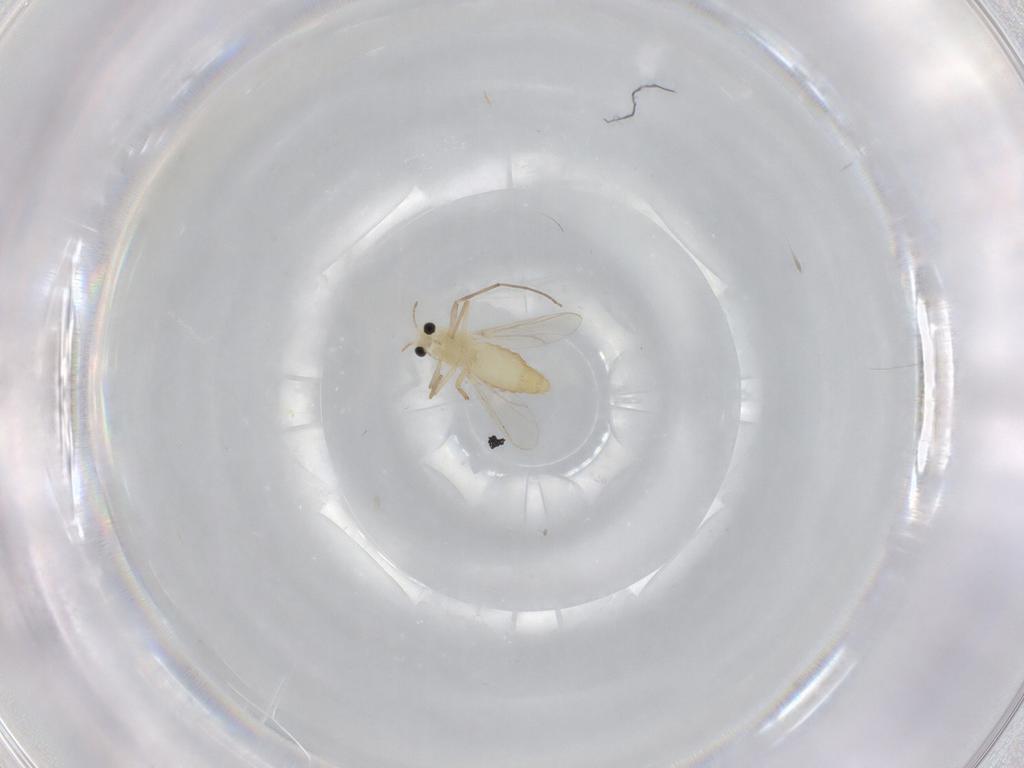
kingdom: Animalia
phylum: Arthropoda
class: Insecta
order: Diptera
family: Chironomidae
